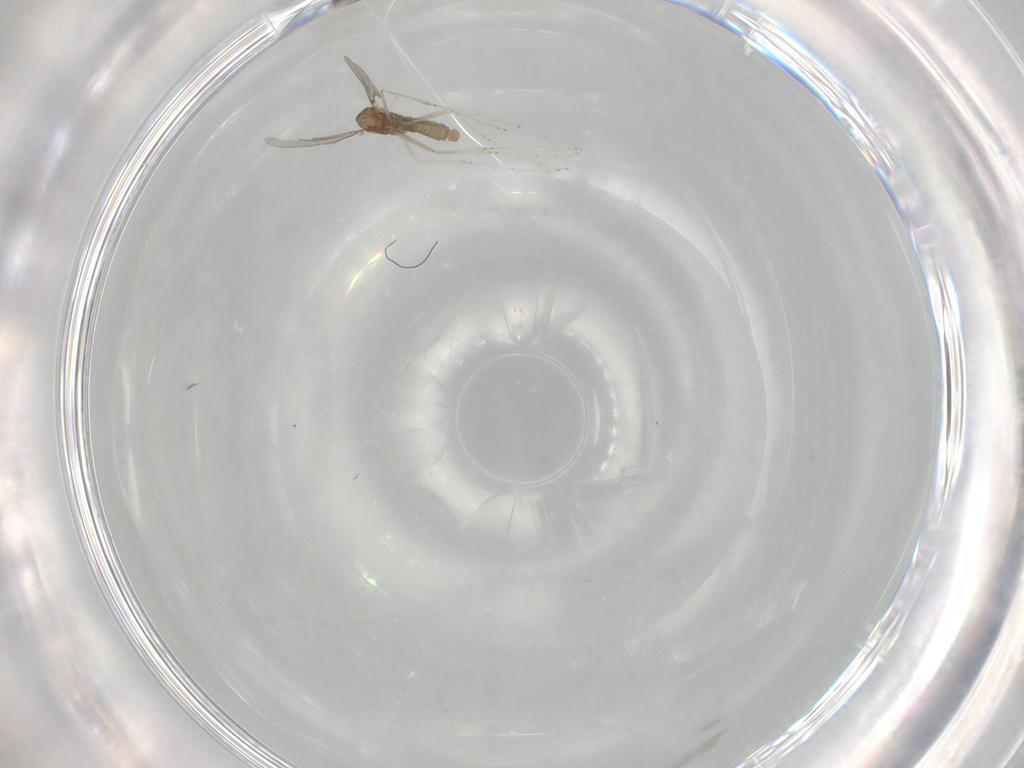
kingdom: Animalia
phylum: Arthropoda
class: Insecta
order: Diptera
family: Cecidomyiidae
